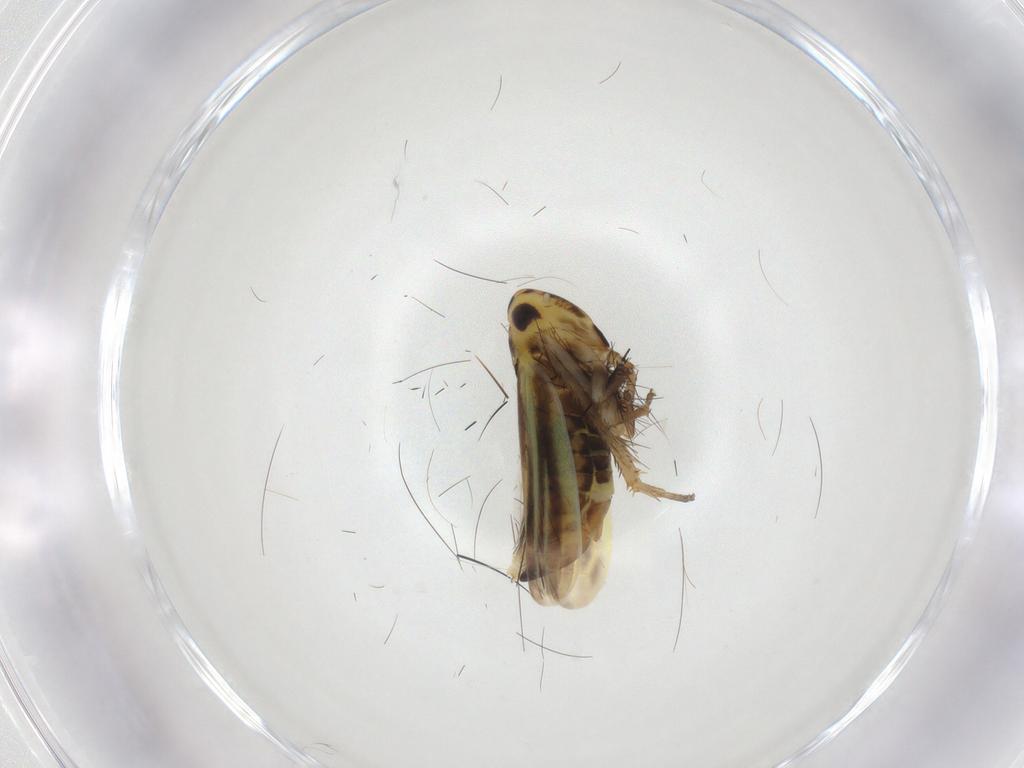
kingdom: Animalia
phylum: Arthropoda
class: Insecta
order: Hemiptera
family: Cicadellidae
